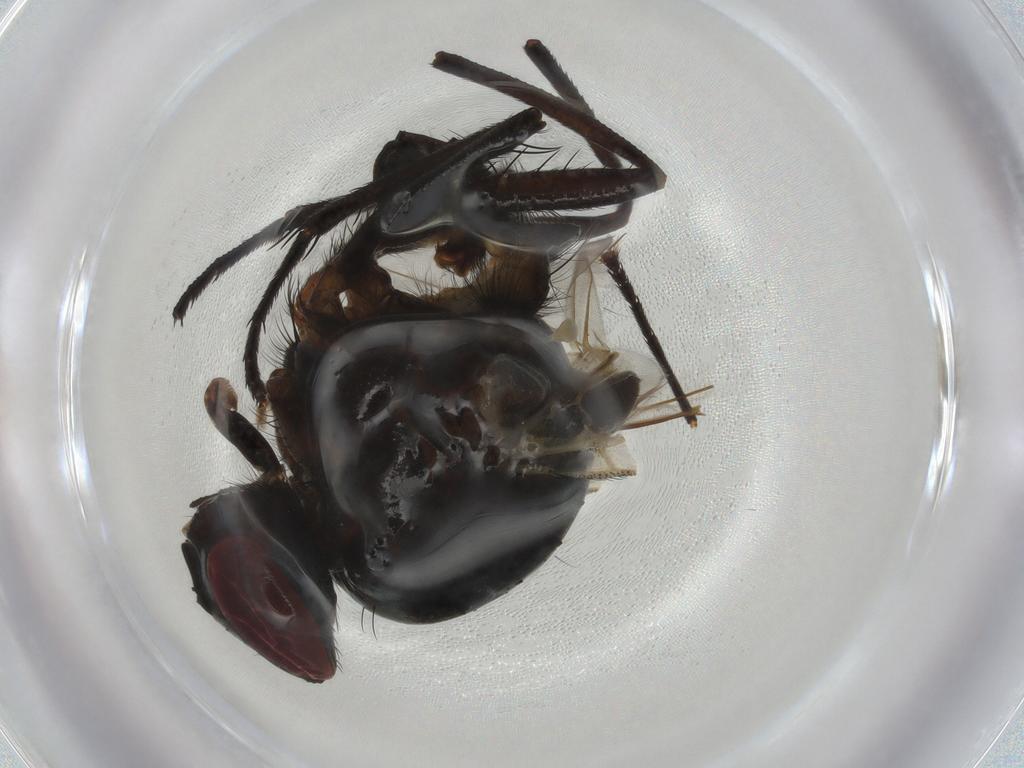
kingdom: Animalia
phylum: Arthropoda
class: Insecta
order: Diptera
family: Anthomyiidae
